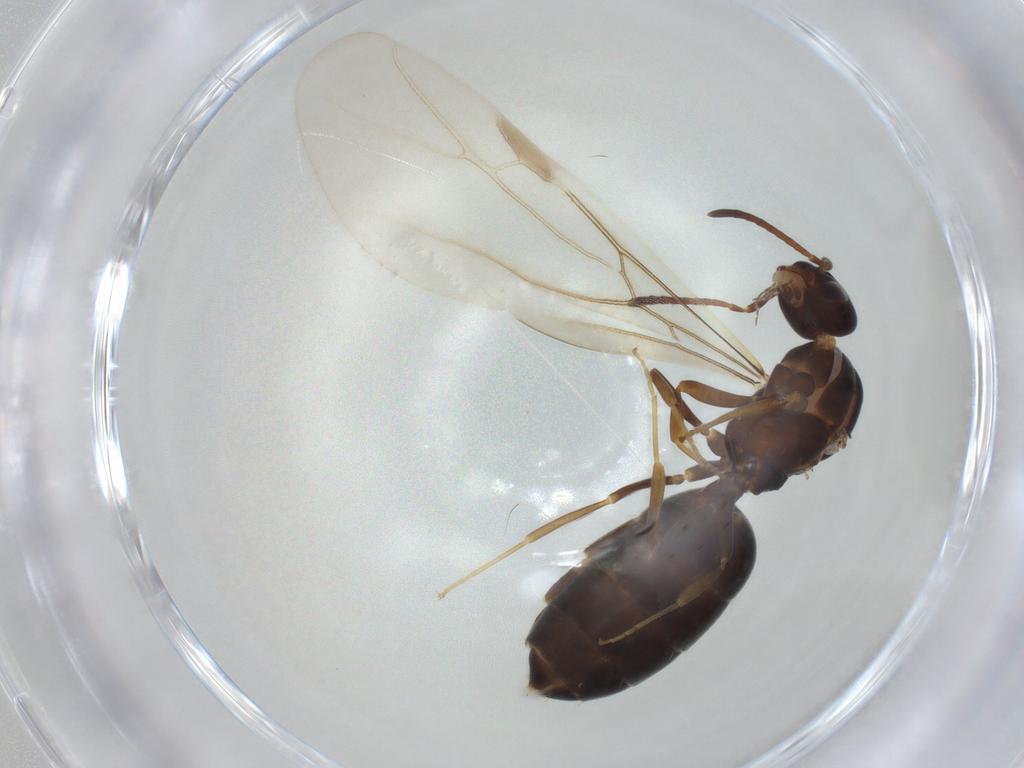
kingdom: Animalia
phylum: Arthropoda
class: Insecta
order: Hymenoptera
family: Formicidae
